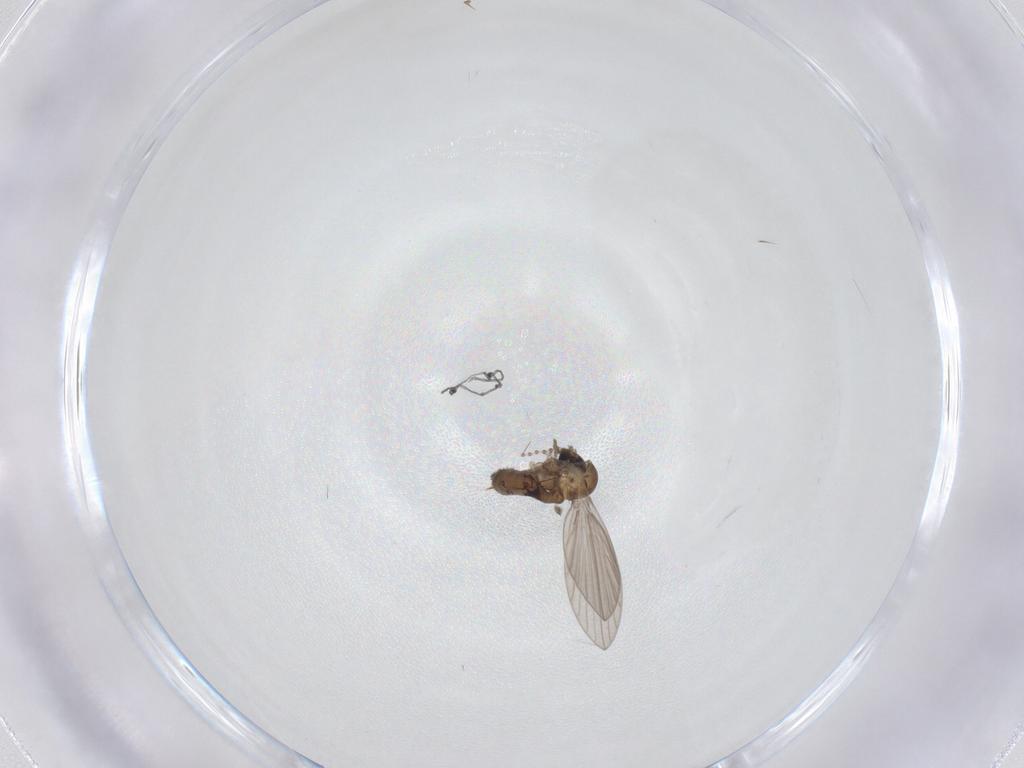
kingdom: Animalia
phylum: Arthropoda
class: Insecta
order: Diptera
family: Psychodidae
